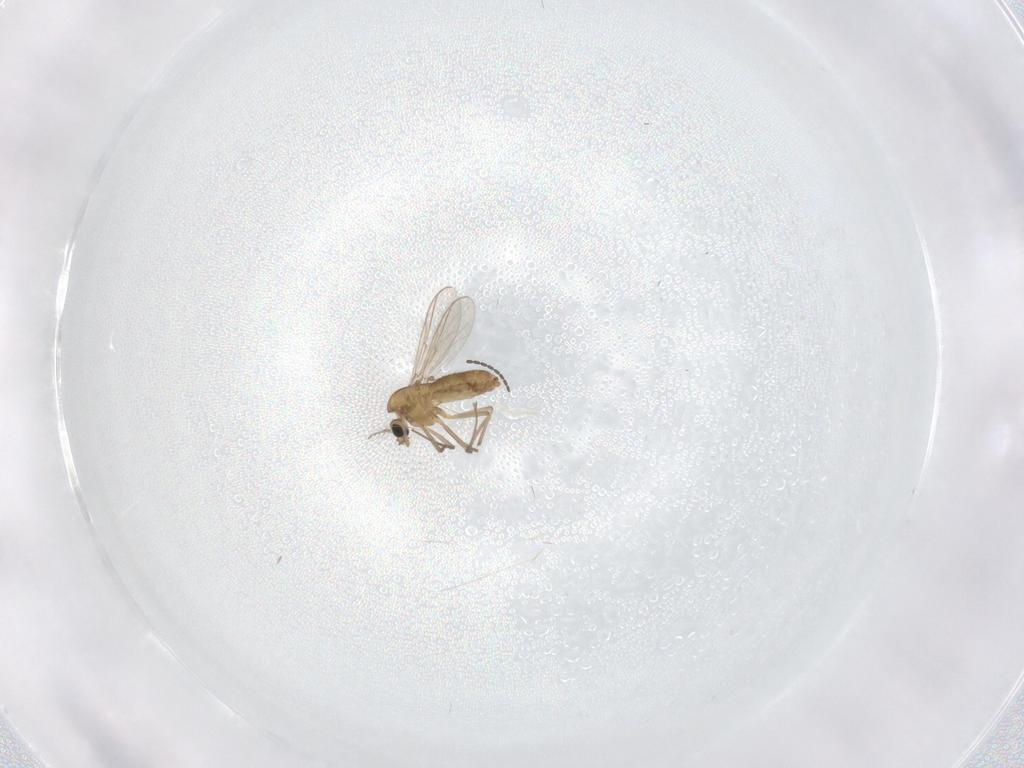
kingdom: Animalia
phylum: Arthropoda
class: Insecta
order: Diptera
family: Chironomidae
